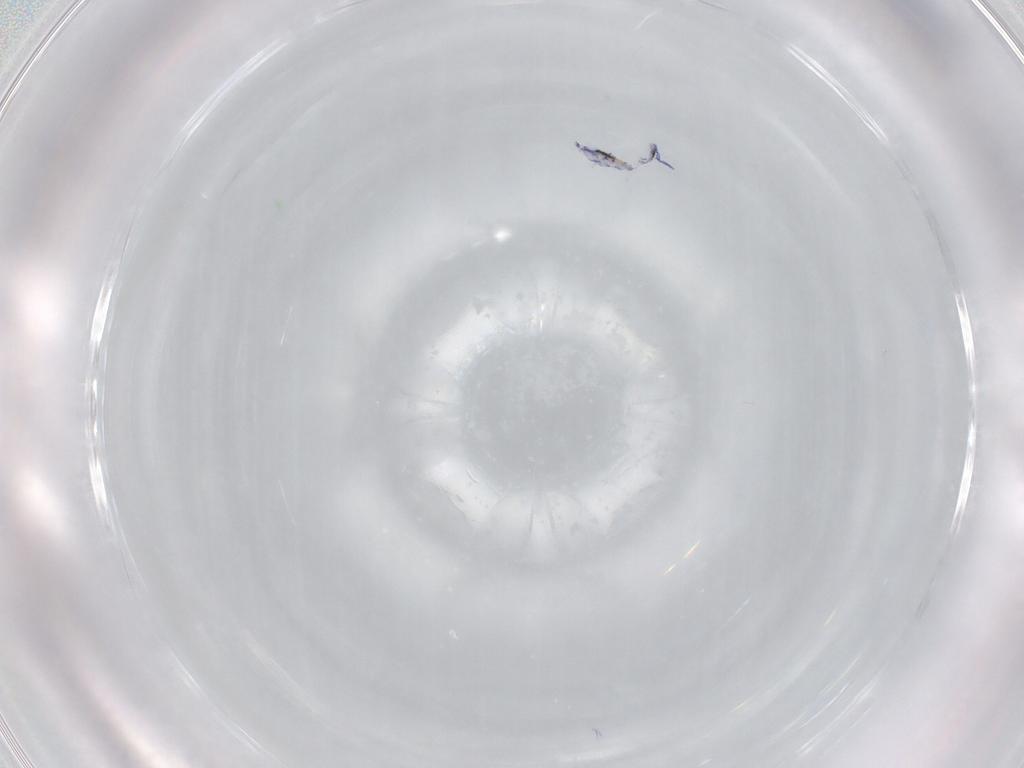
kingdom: Animalia
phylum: Arthropoda
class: Collembola
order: Entomobryomorpha
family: Entomobryidae
